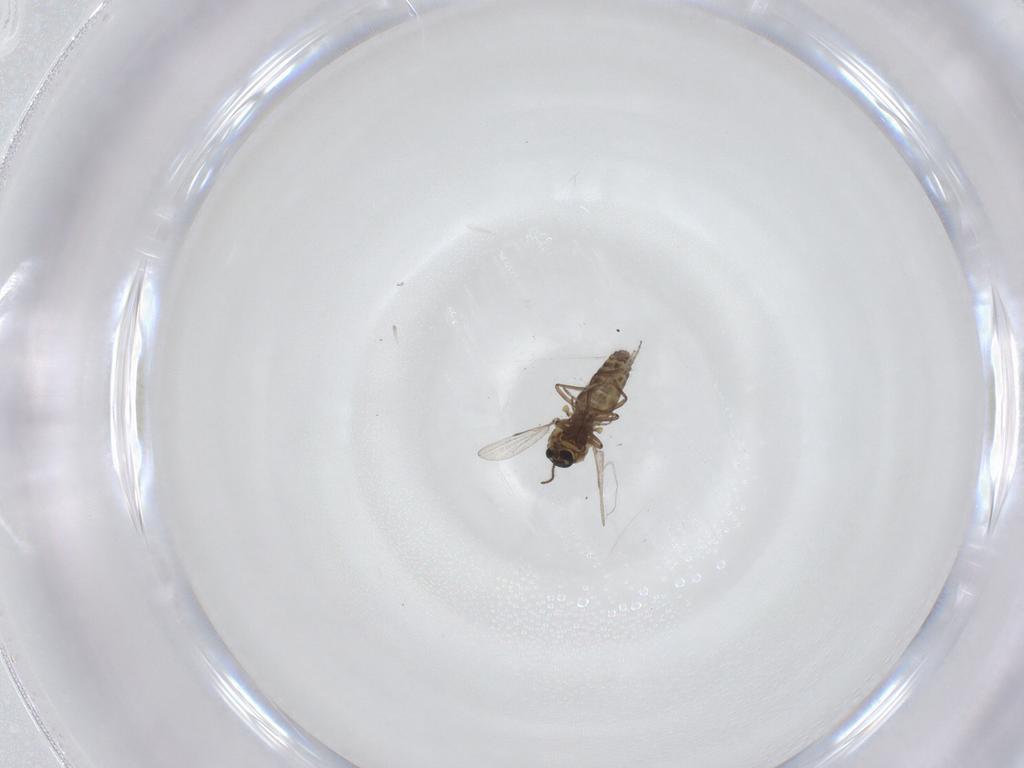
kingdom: Animalia
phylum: Arthropoda
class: Insecta
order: Diptera
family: Ceratopogonidae
